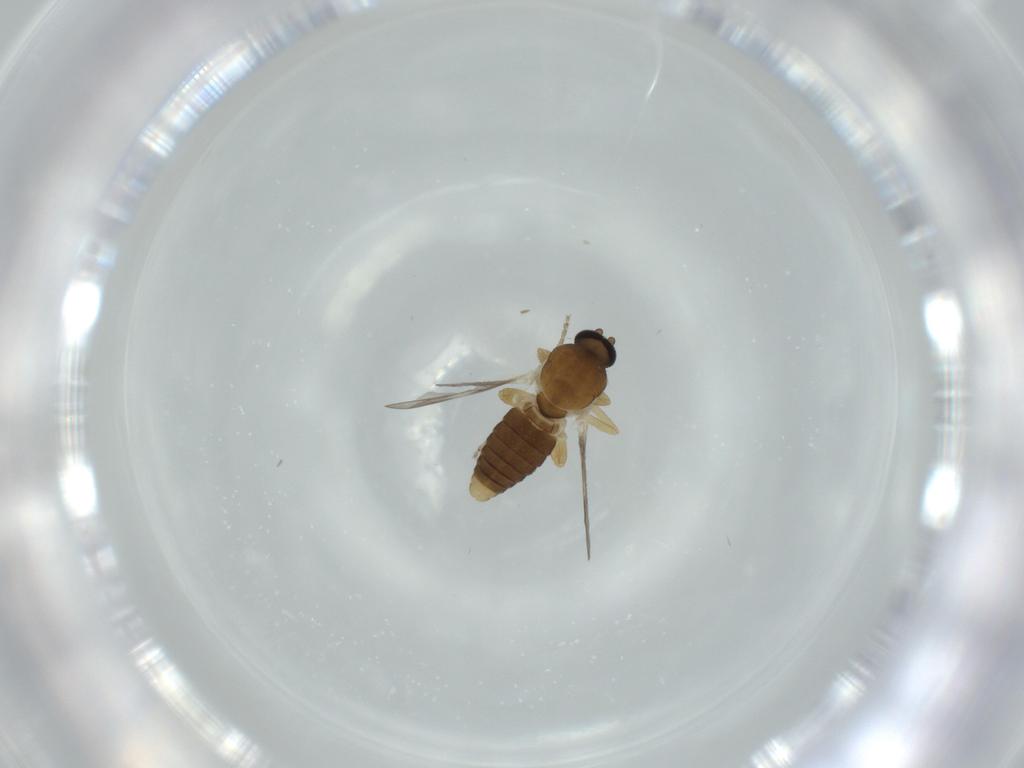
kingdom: Animalia
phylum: Arthropoda
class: Insecta
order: Diptera
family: Ceratopogonidae
